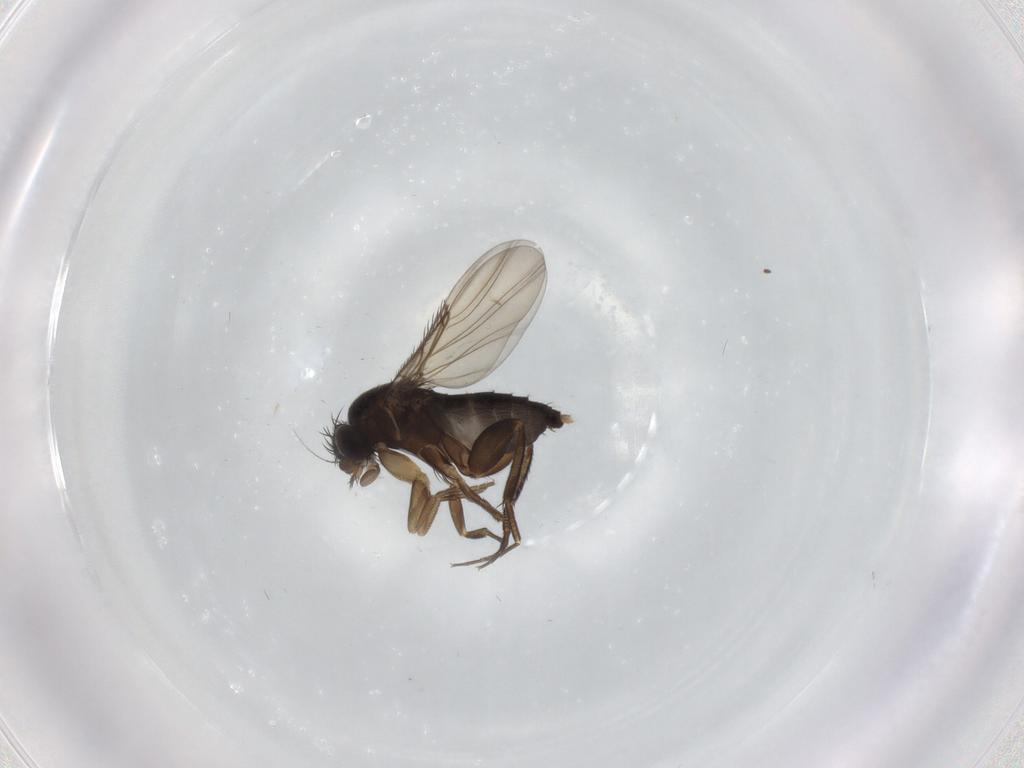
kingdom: Animalia
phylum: Arthropoda
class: Insecta
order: Diptera
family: Phoridae
